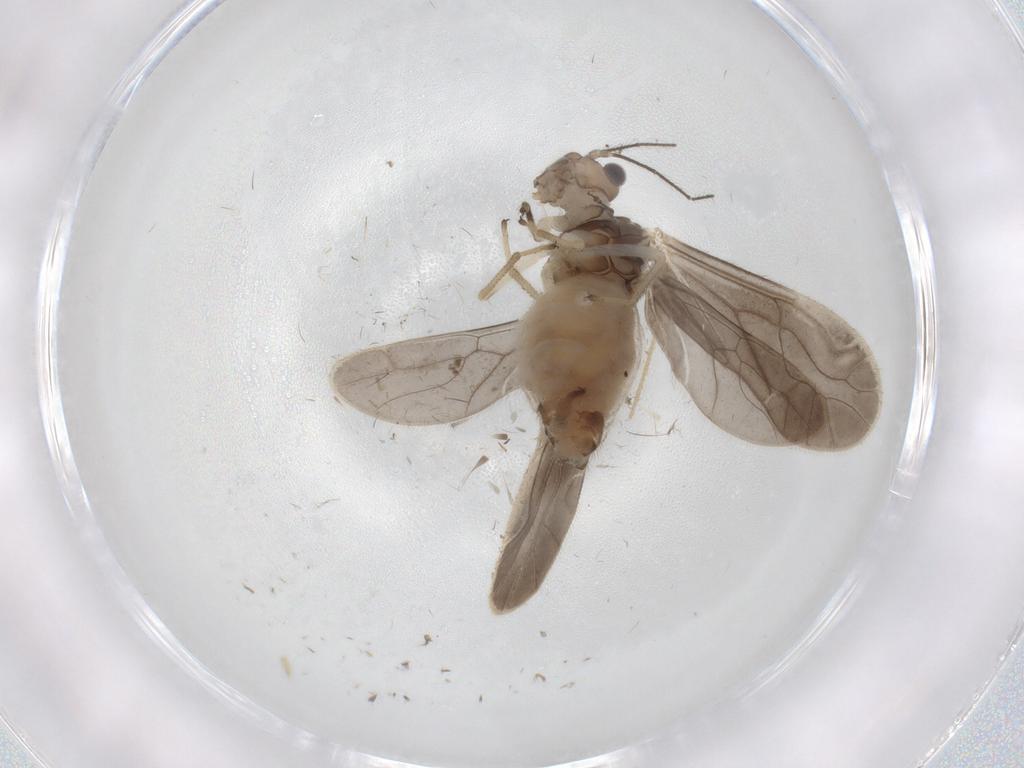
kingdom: Animalia
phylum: Arthropoda
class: Insecta
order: Psocodea
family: Caeciliusidae
